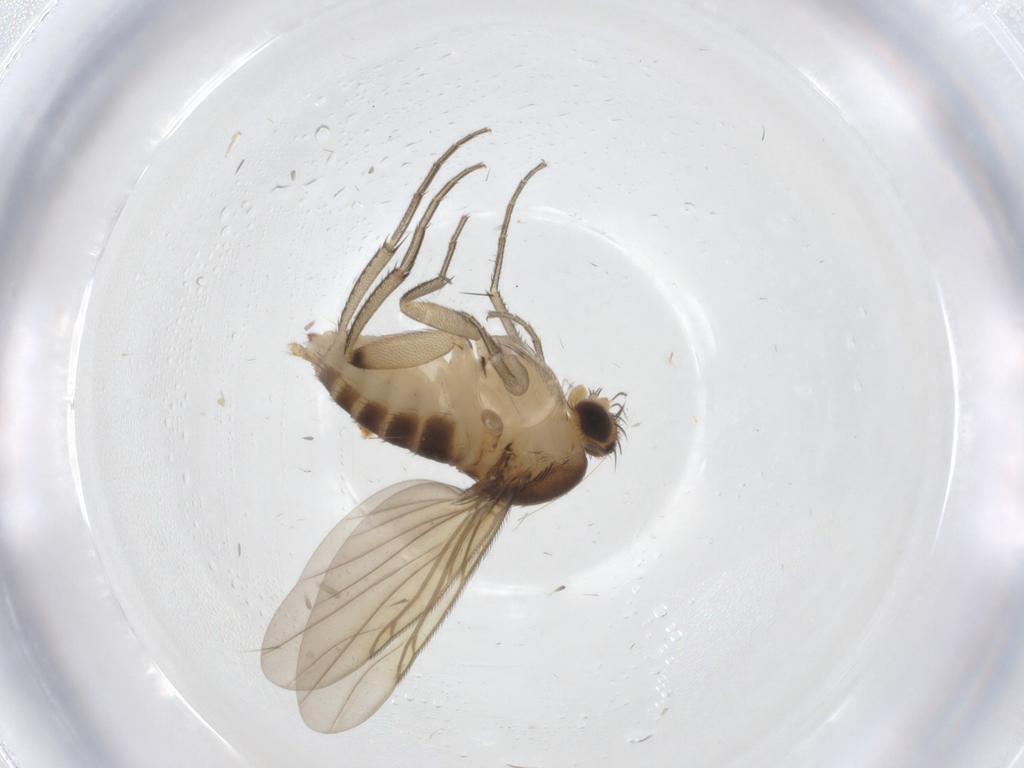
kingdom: Animalia
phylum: Arthropoda
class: Insecta
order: Diptera
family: Phoridae
